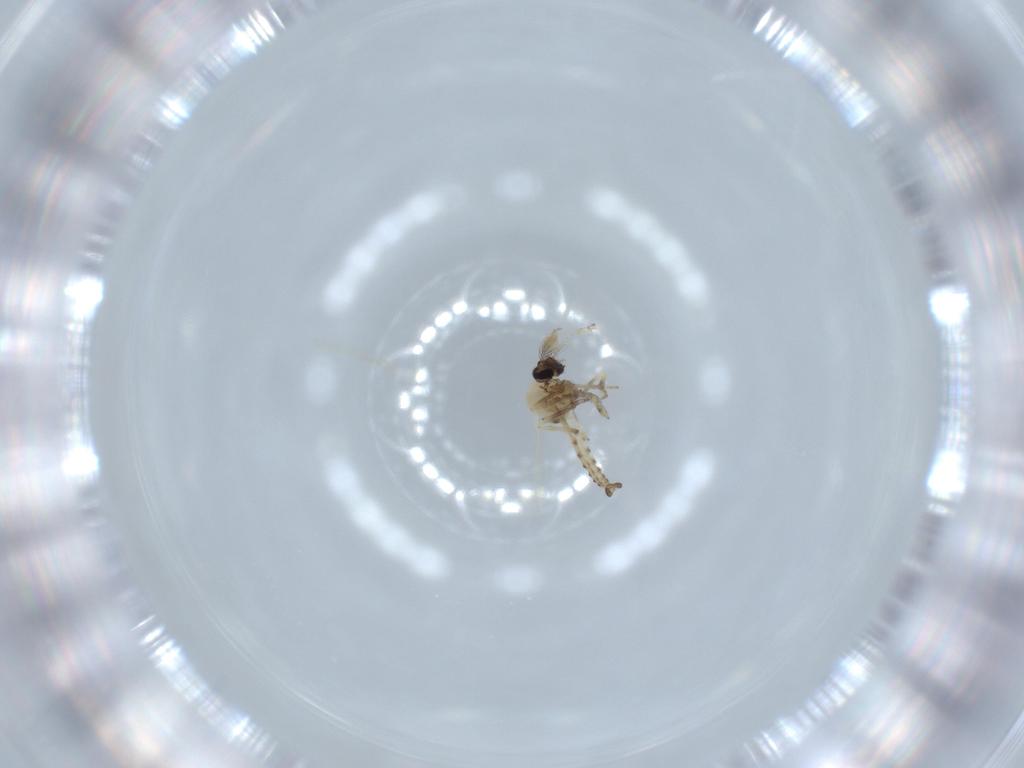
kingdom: Animalia
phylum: Arthropoda
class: Insecta
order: Diptera
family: Ceratopogonidae
